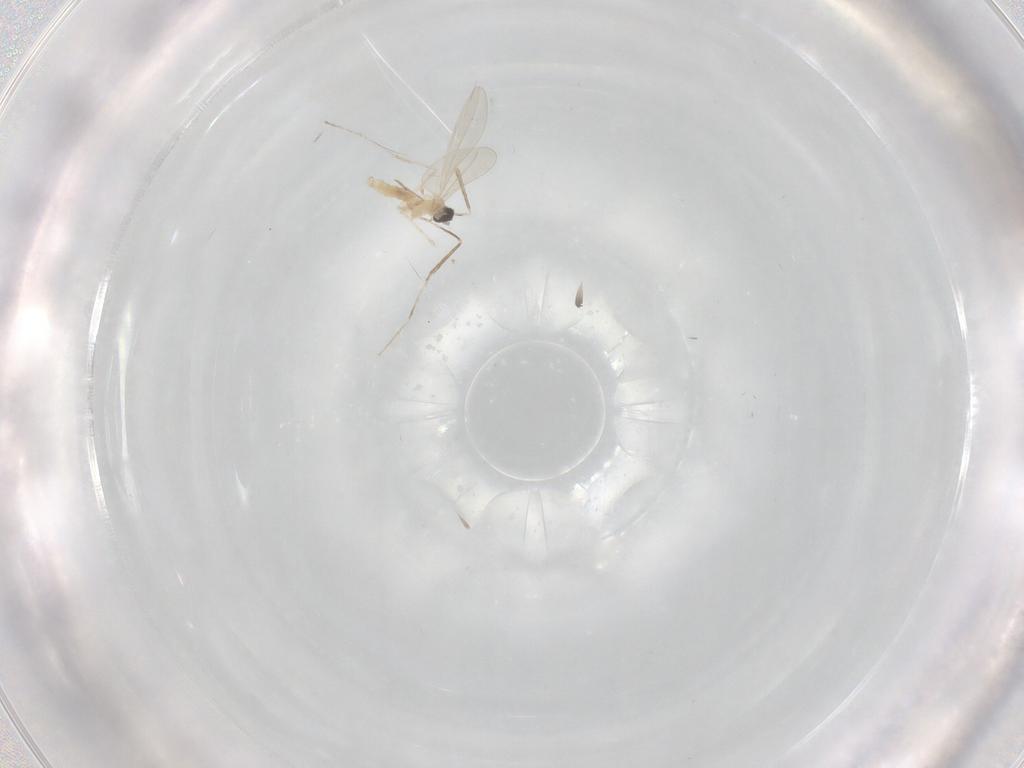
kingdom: Animalia
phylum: Arthropoda
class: Insecta
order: Diptera
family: Cecidomyiidae
